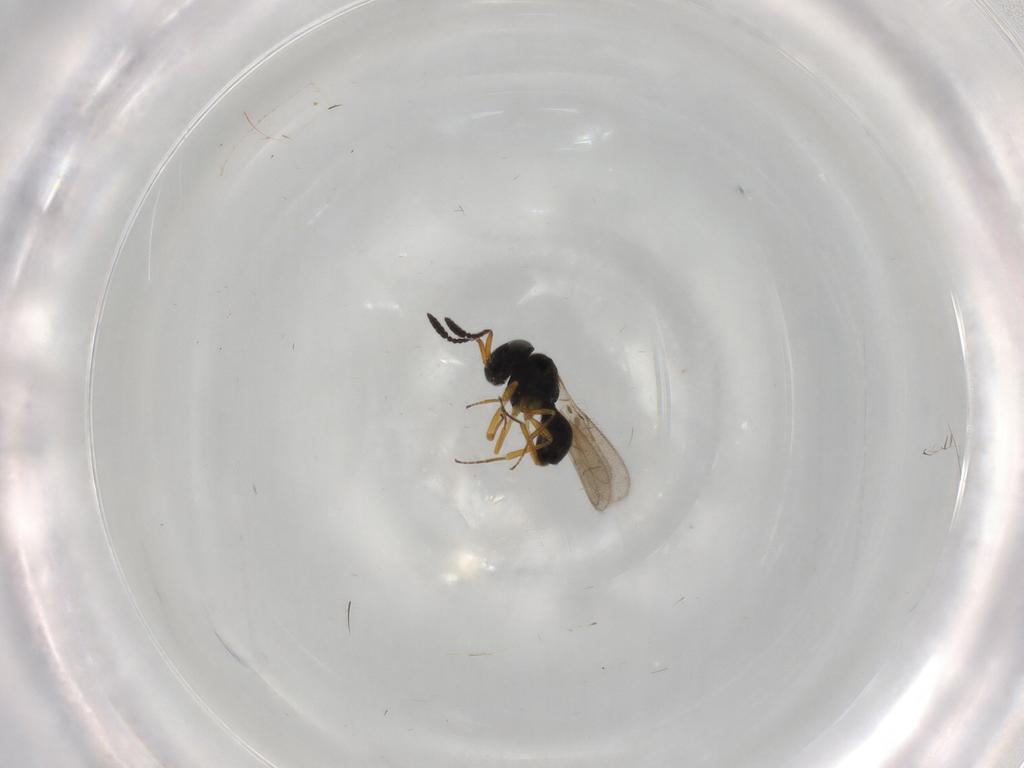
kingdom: Animalia
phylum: Arthropoda
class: Insecta
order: Hymenoptera
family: Scelionidae
